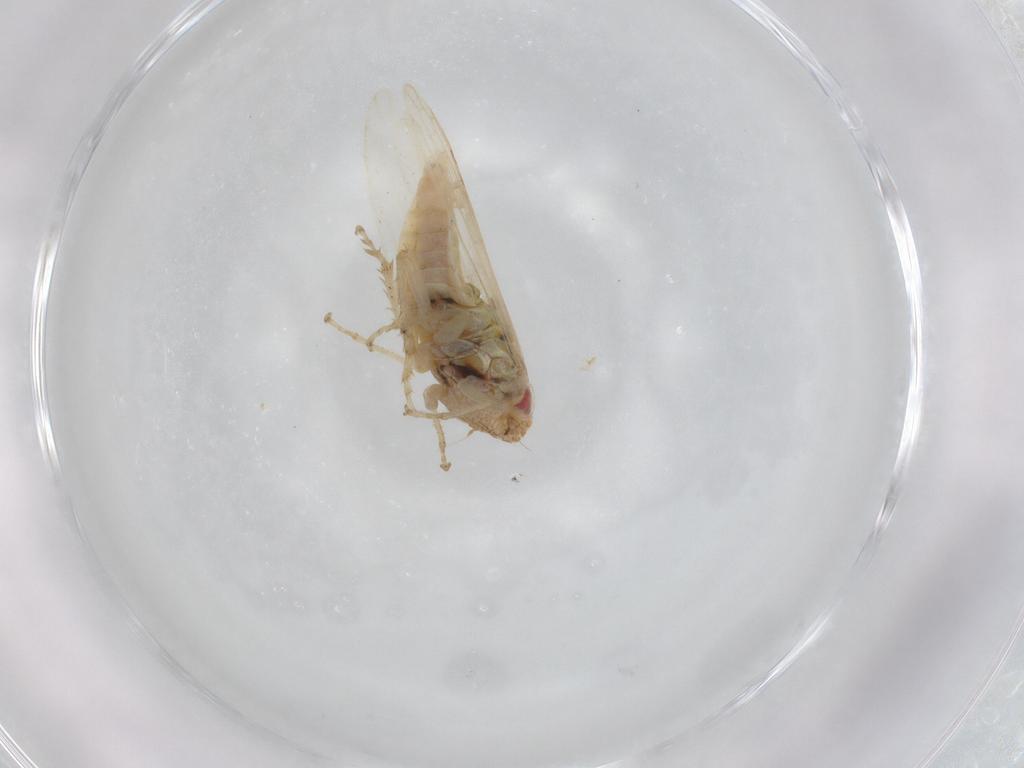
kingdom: Animalia
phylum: Arthropoda
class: Insecta
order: Hemiptera
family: Cicadellidae
